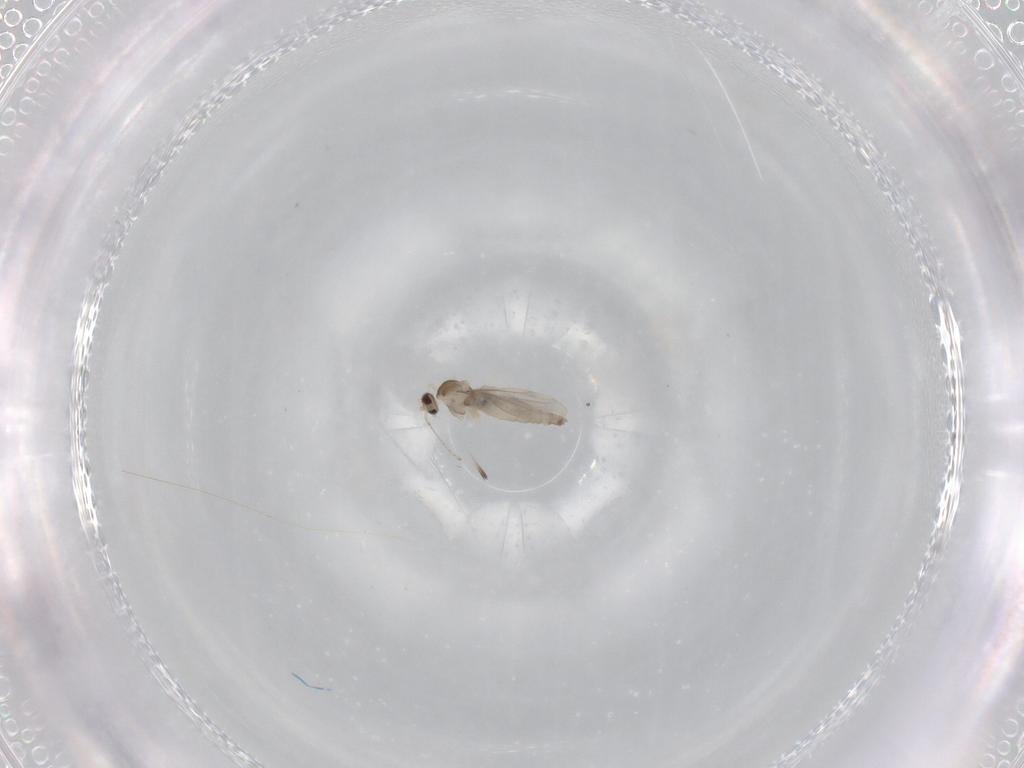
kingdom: Animalia
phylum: Arthropoda
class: Insecta
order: Diptera
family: Cecidomyiidae
